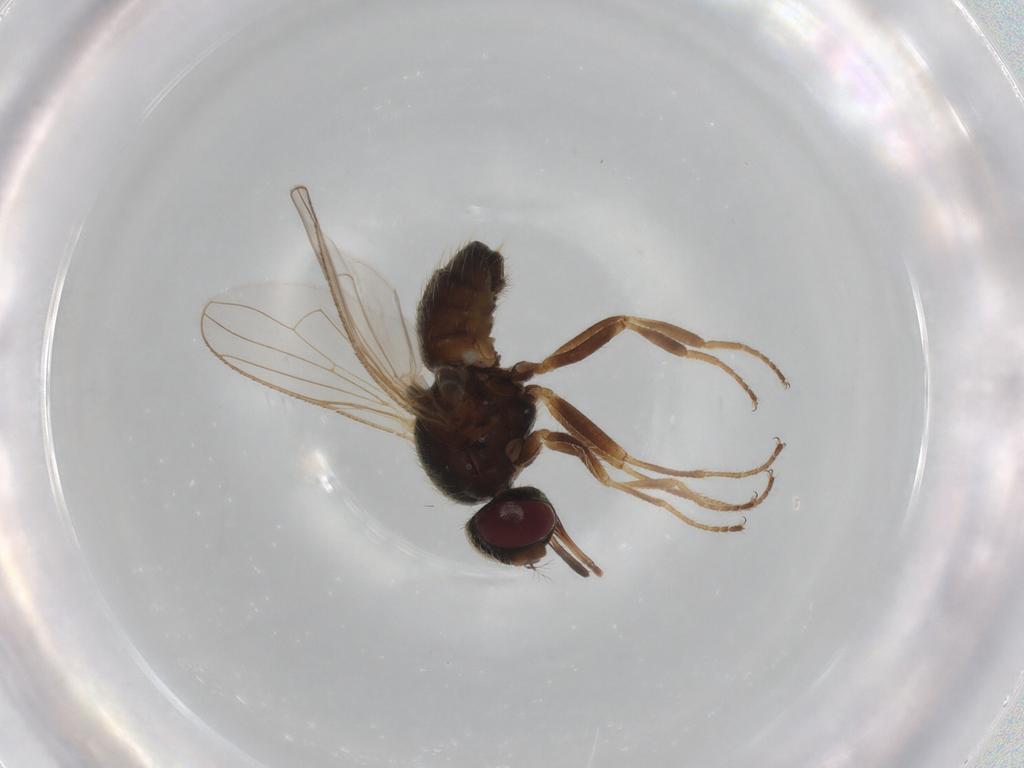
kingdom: Animalia
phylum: Arthropoda
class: Insecta
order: Diptera
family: Muscidae
